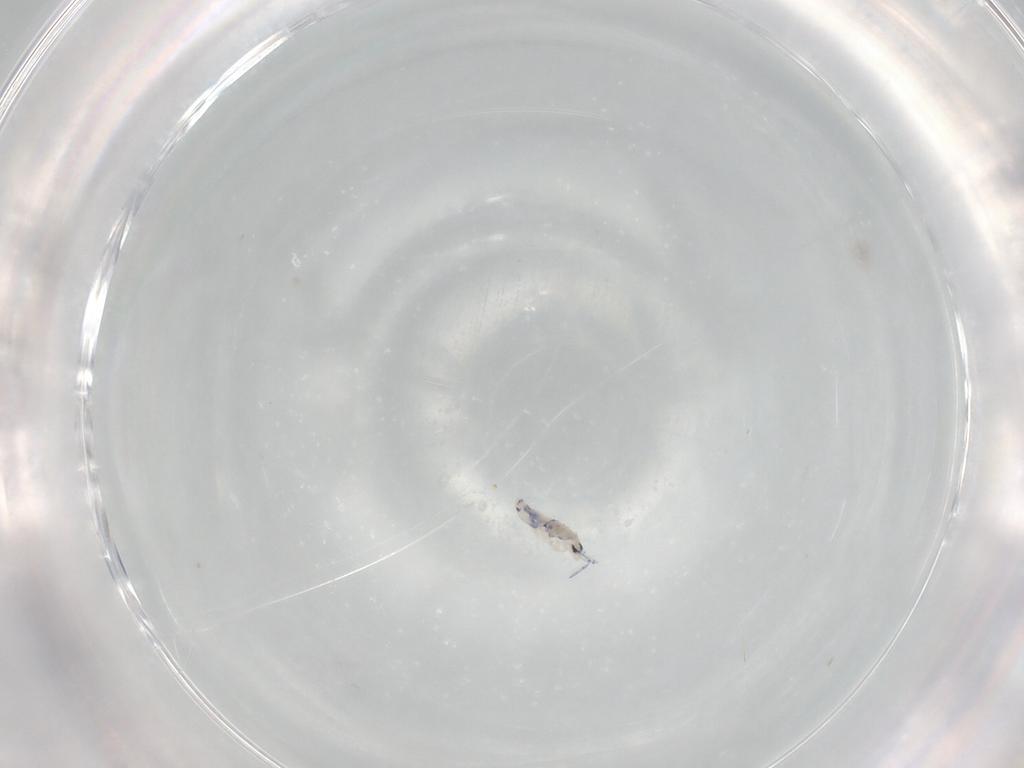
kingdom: Animalia
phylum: Arthropoda
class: Collembola
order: Entomobryomorpha
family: Entomobryidae
